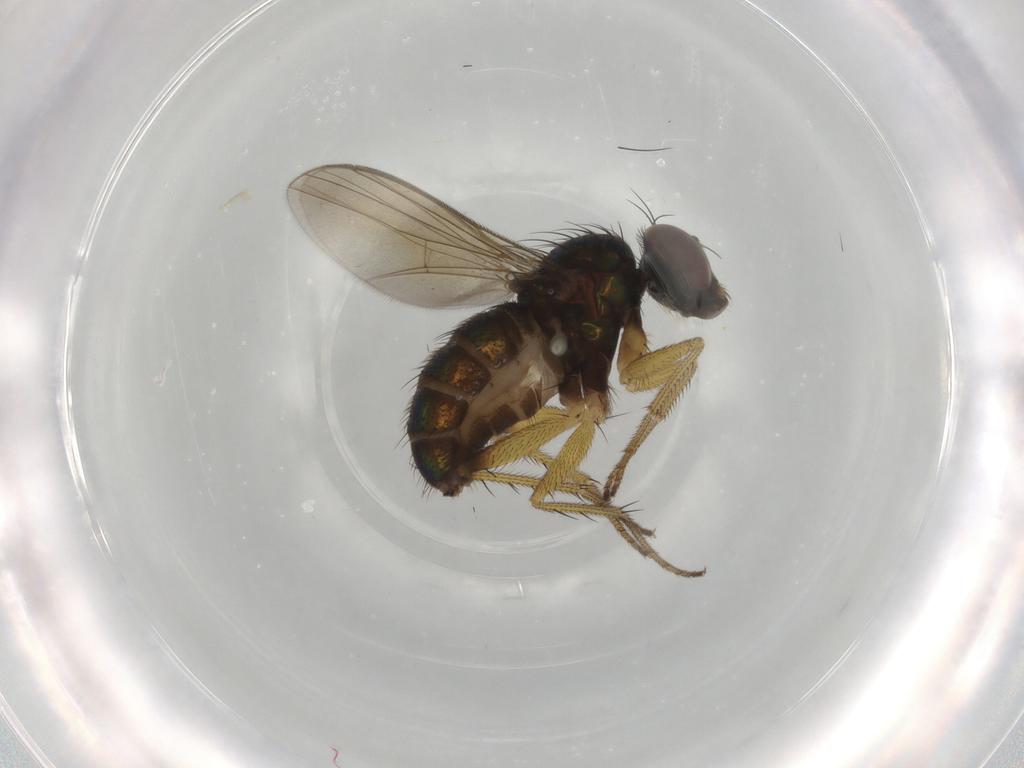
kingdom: Animalia
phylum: Arthropoda
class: Insecta
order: Diptera
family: Dolichopodidae
